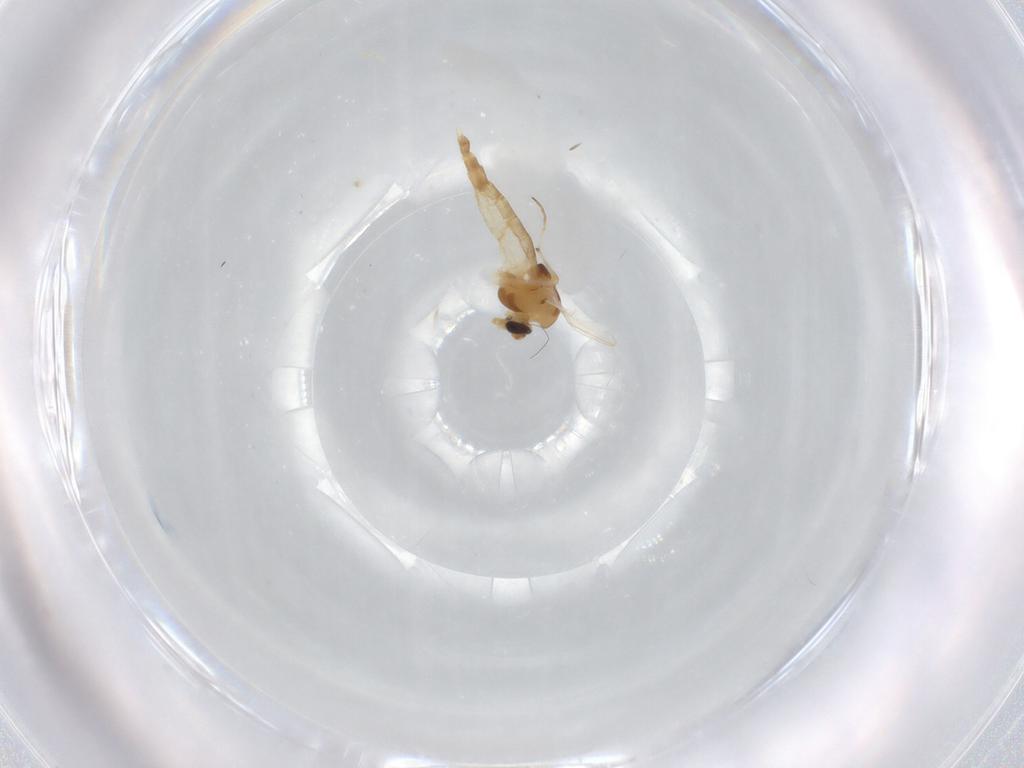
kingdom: Animalia
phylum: Arthropoda
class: Insecta
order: Diptera
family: Chironomidae
